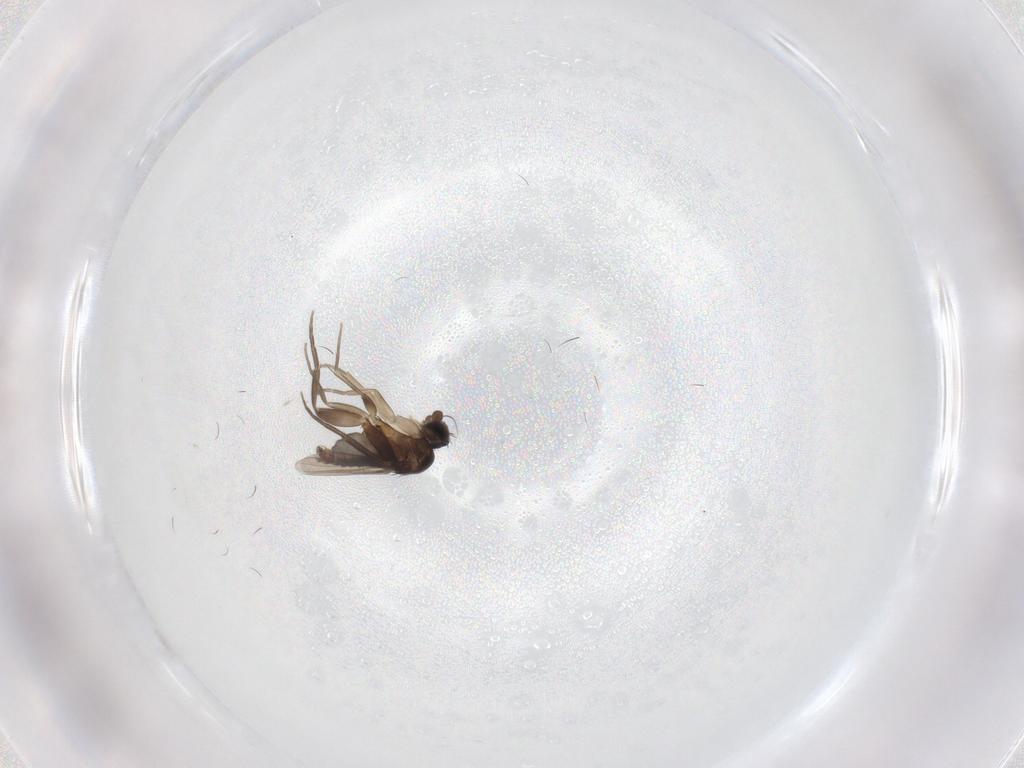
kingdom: Animalia
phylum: Arthropoda
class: Insecta
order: Diptera
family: Phoridae
